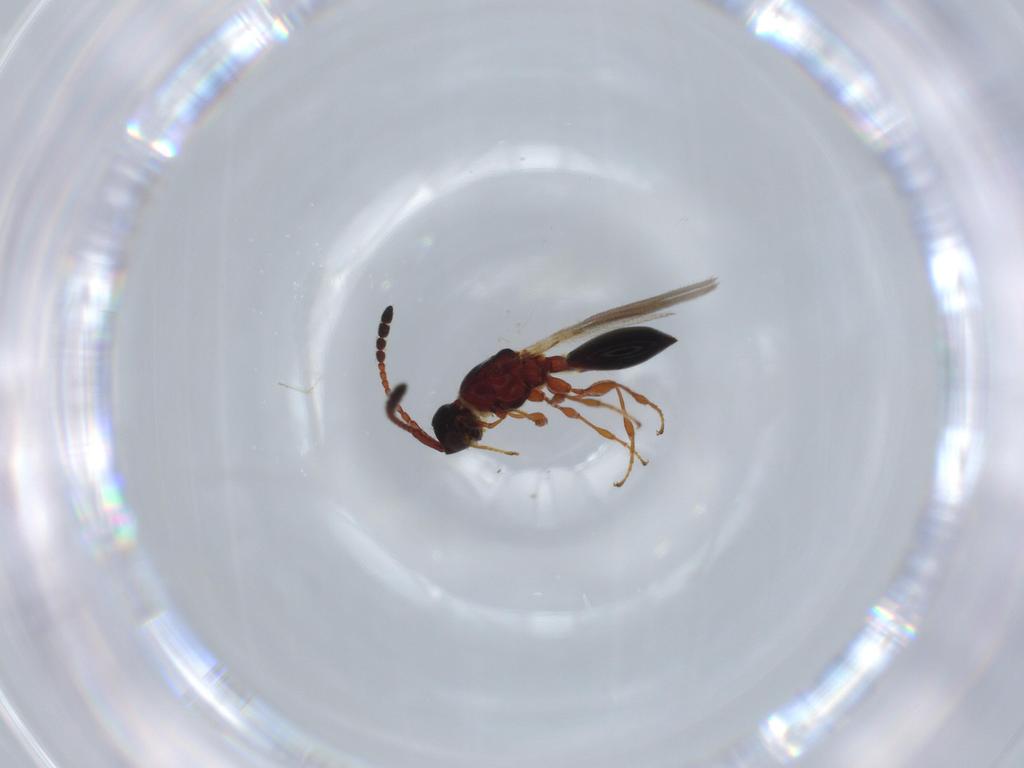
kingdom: Animalia
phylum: Arthropoda
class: Insecta
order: Hymenoptera
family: Diapriidae
